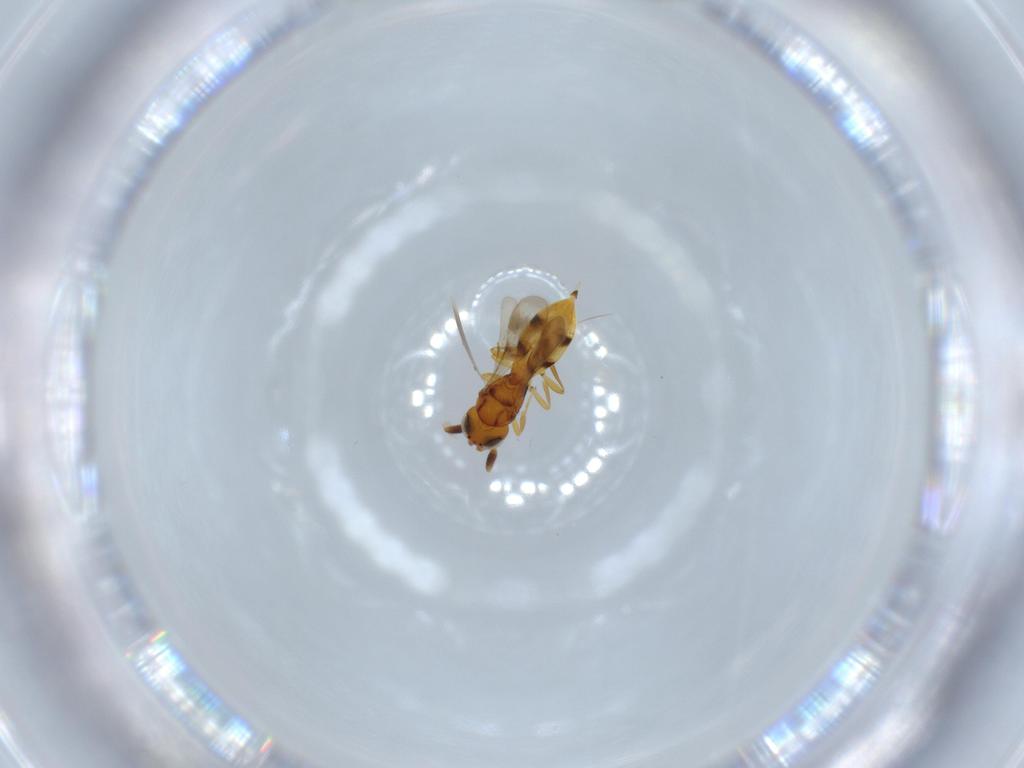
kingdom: Animalia
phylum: Arthropoda
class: Insecta
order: Hymenoptera
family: Scelionidae
